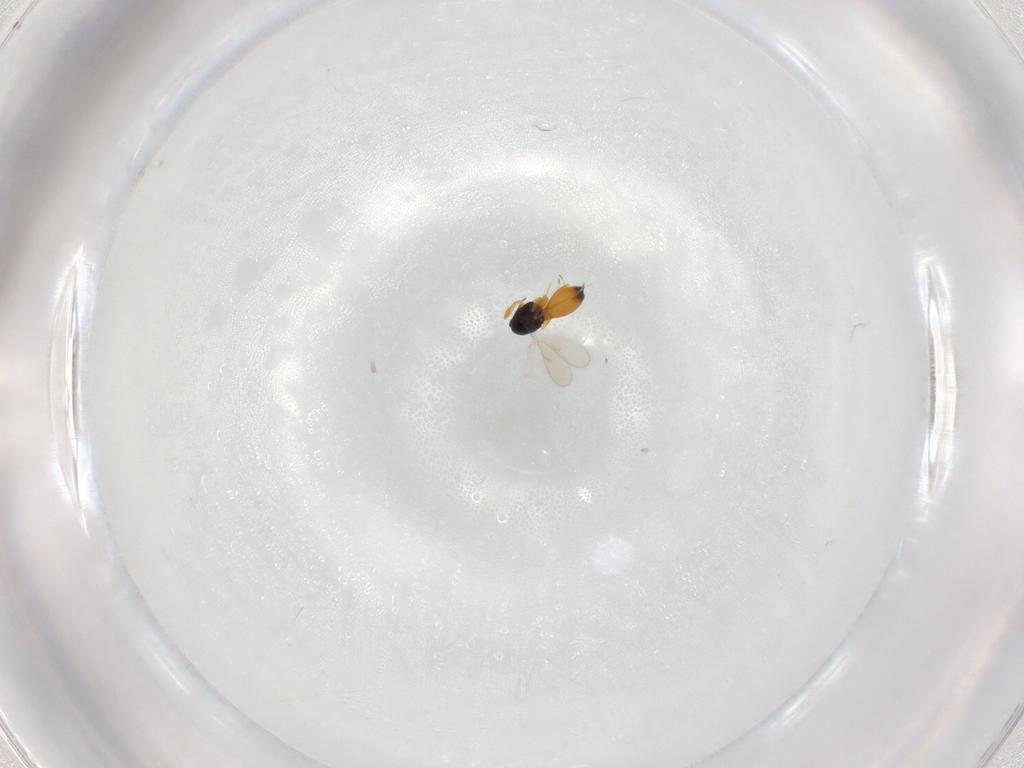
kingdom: Animalia
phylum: Arthropoda
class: Insecta
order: Hymenoptera
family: Scelionidae
